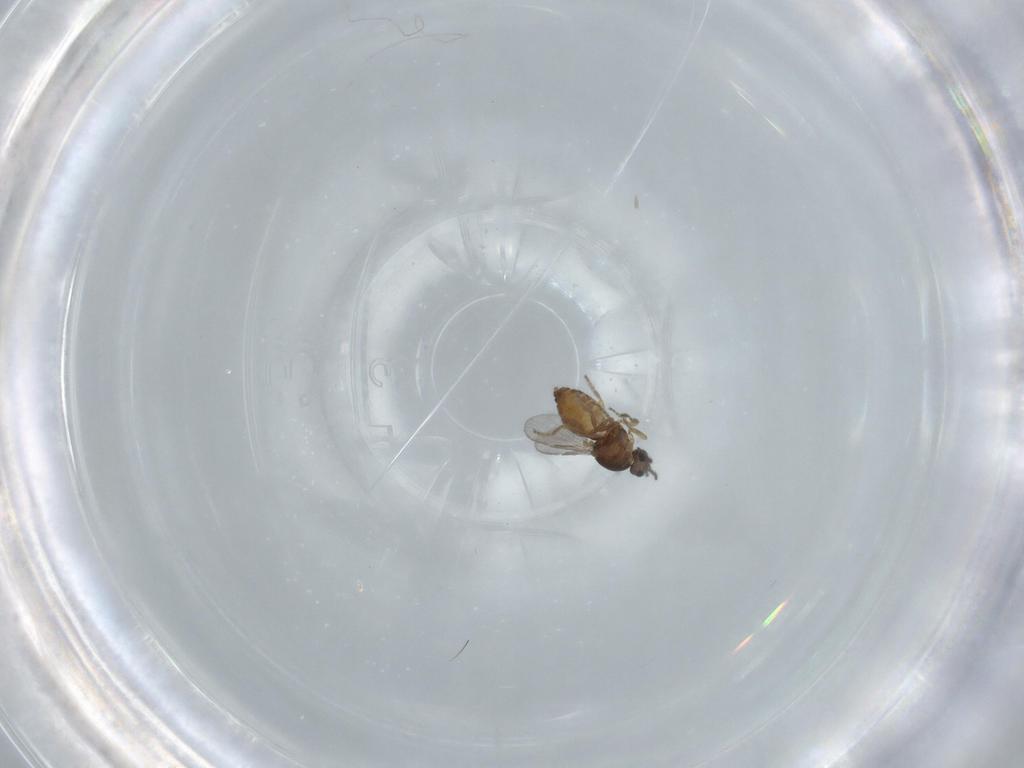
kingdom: Animalia
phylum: Arthropoda
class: Insecta
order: Diptera
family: Ceratopogonidae
